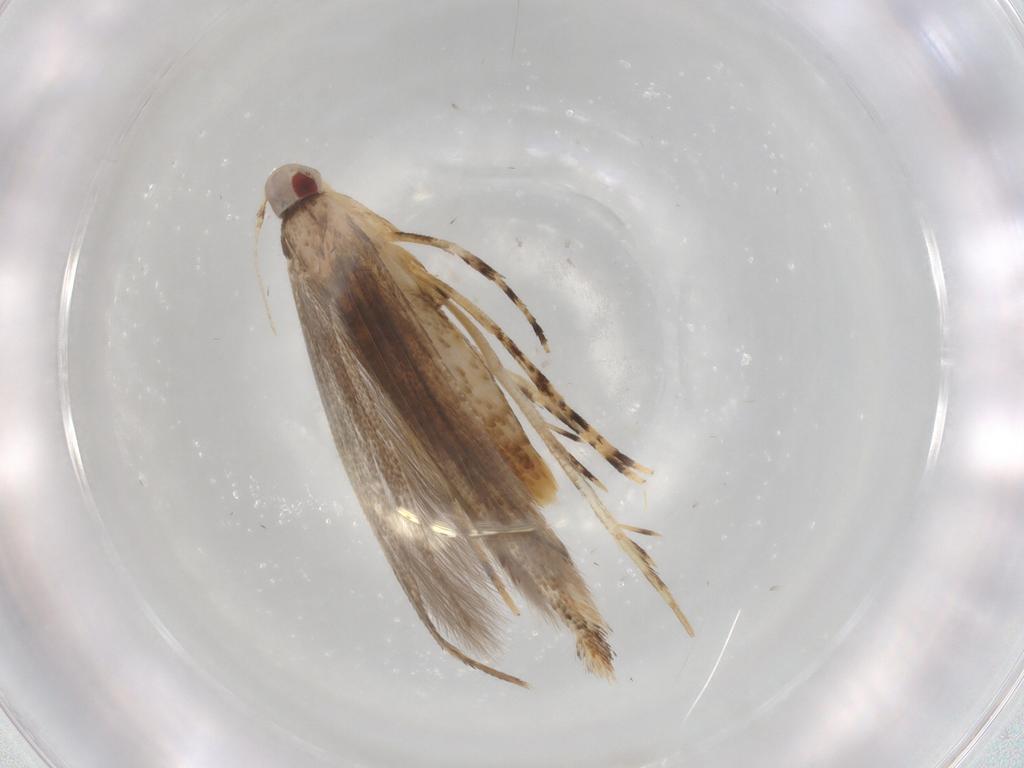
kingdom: Animalia
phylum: Arthropoda
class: Insecta
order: Lepidoptera
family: Cosmopterigidae
